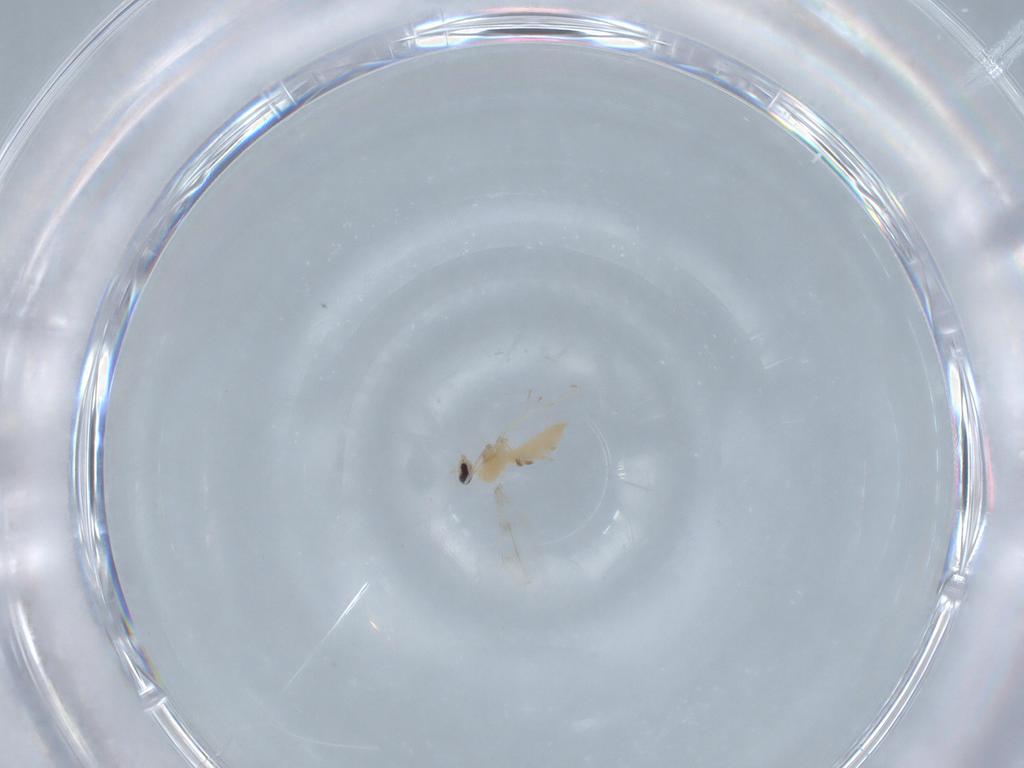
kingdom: Animalia
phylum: Arthropoda
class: Insecta
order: Diptera
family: Cecidomyiidae
